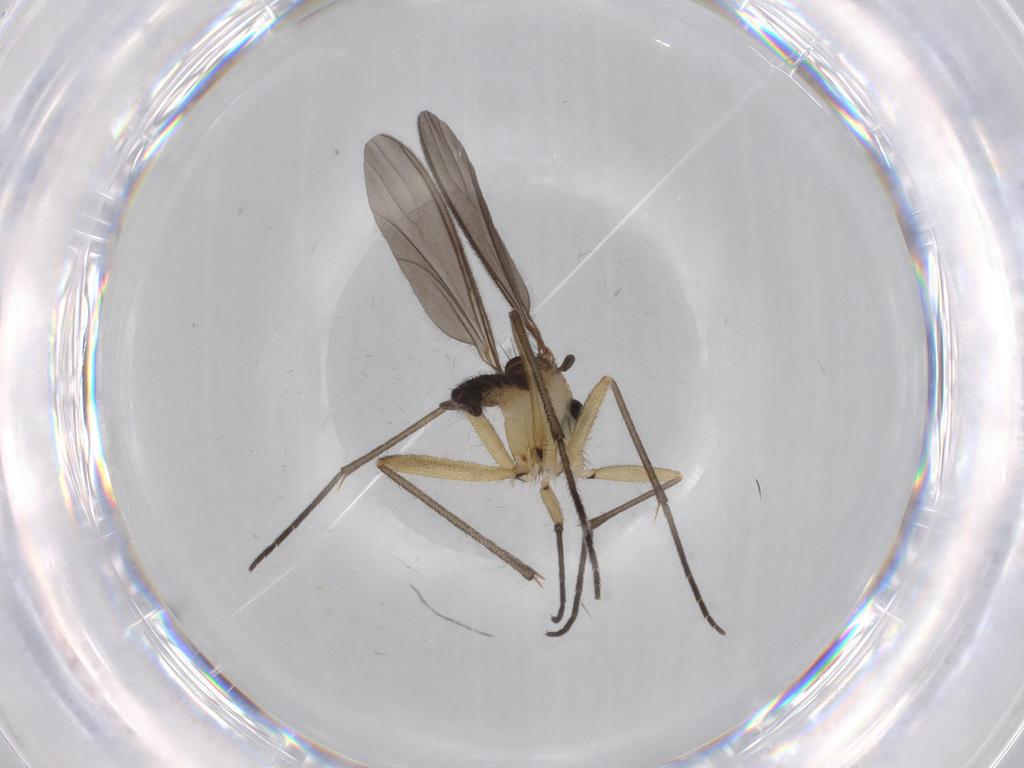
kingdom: Animalia
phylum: Arthropoda
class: Insecta
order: Diptera
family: Sciaridae
